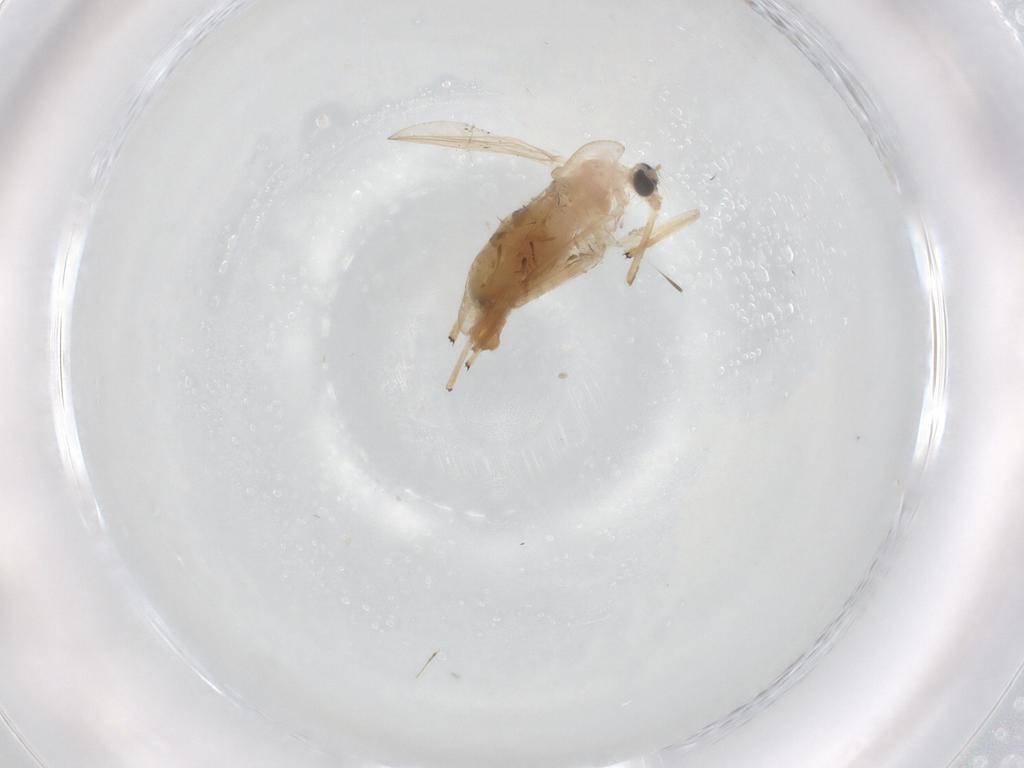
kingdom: Animalia
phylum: Arthropoda
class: Insecta
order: Diptera
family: Chironomidae
